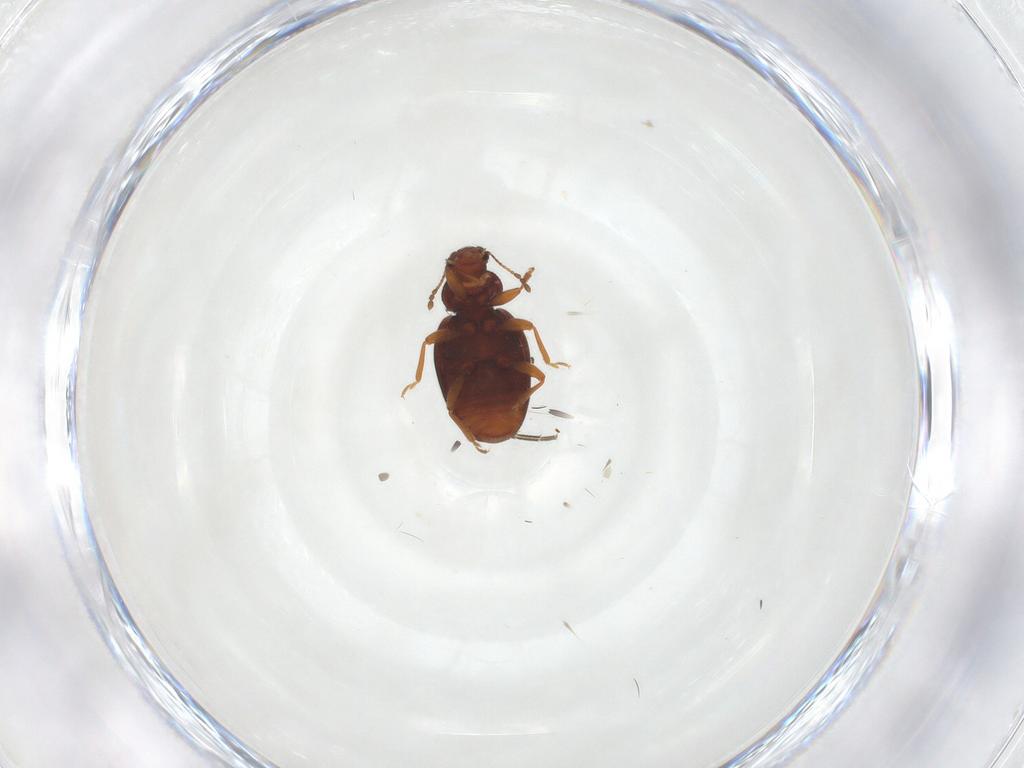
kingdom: Animalia
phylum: Arthropoda
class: Insecta
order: Coleoptera
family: Latridiidae
